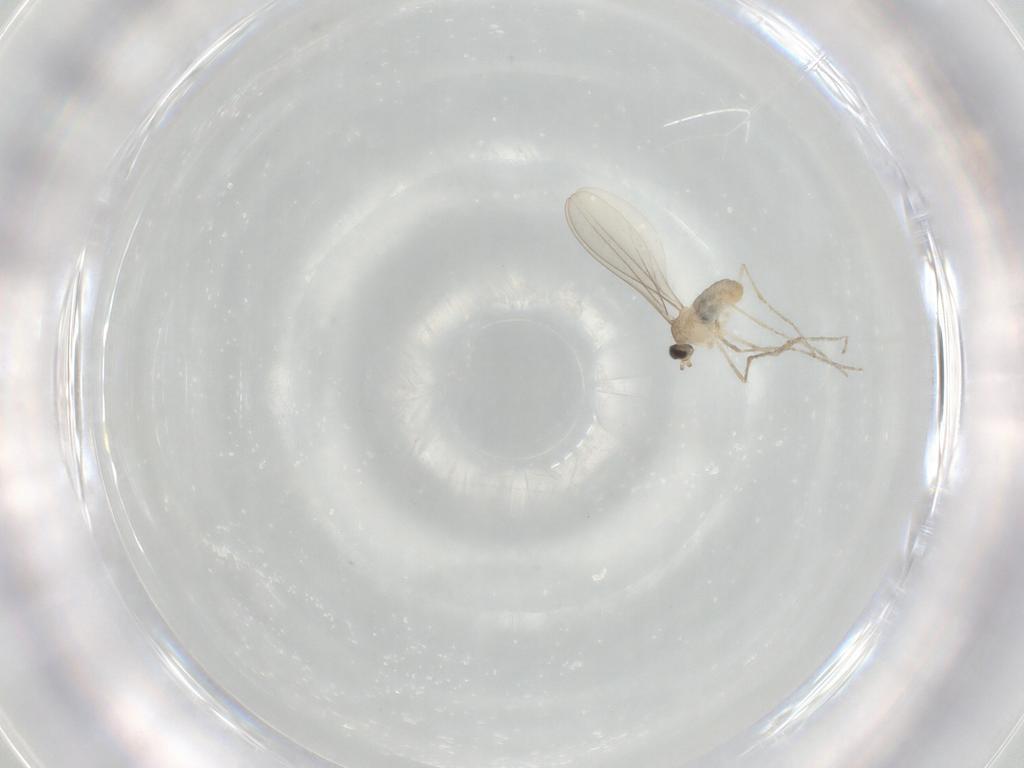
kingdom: Animalia
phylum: Arthropoda
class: Insecta
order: Diptera
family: Cecidomyiidae
